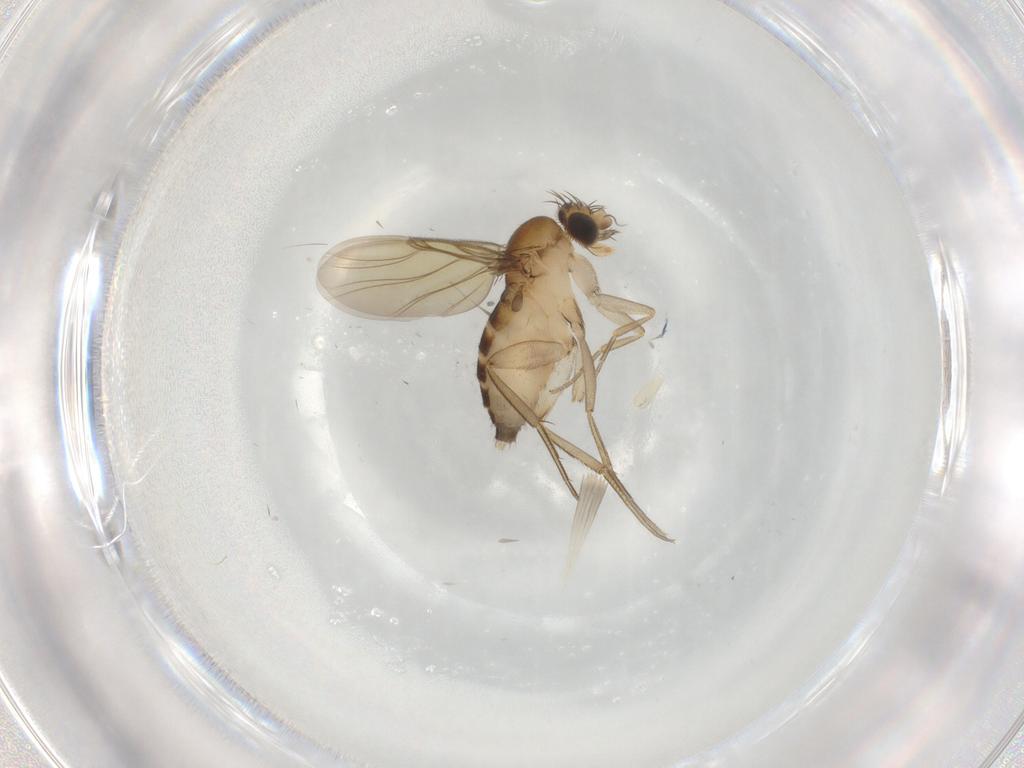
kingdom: Animalia
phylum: Arthropoda
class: Insecta
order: Diptera
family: Phoridae
